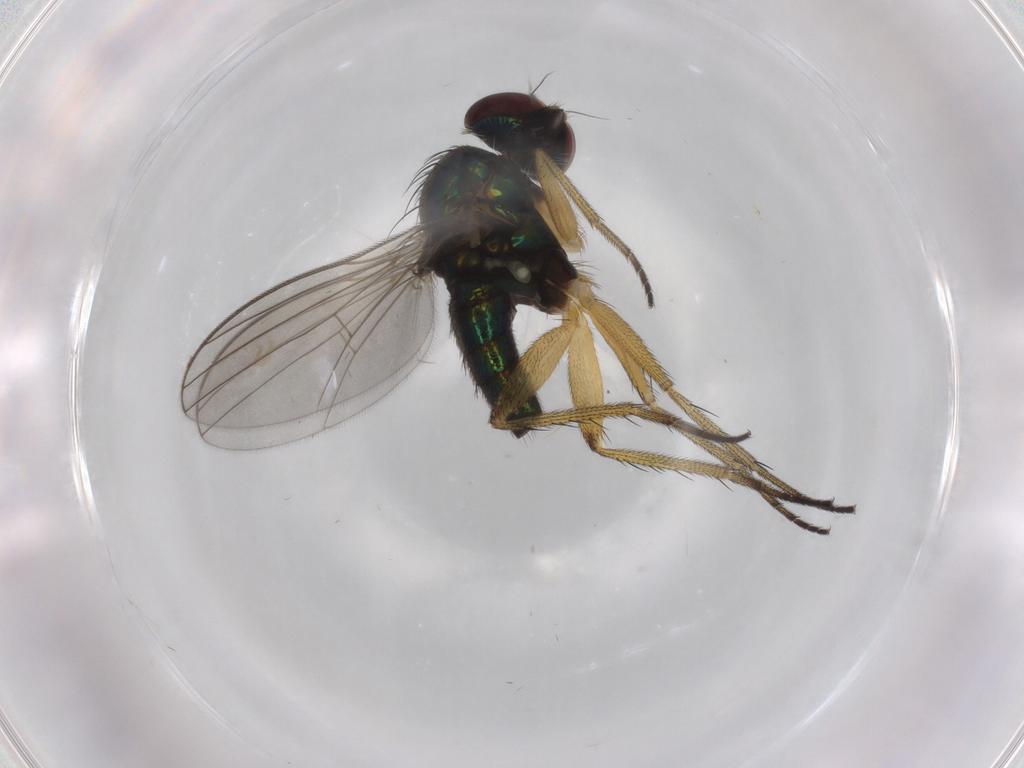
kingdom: Animalia
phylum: Arthropoda
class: Insecta
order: Diptera
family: Dolichopodidae
